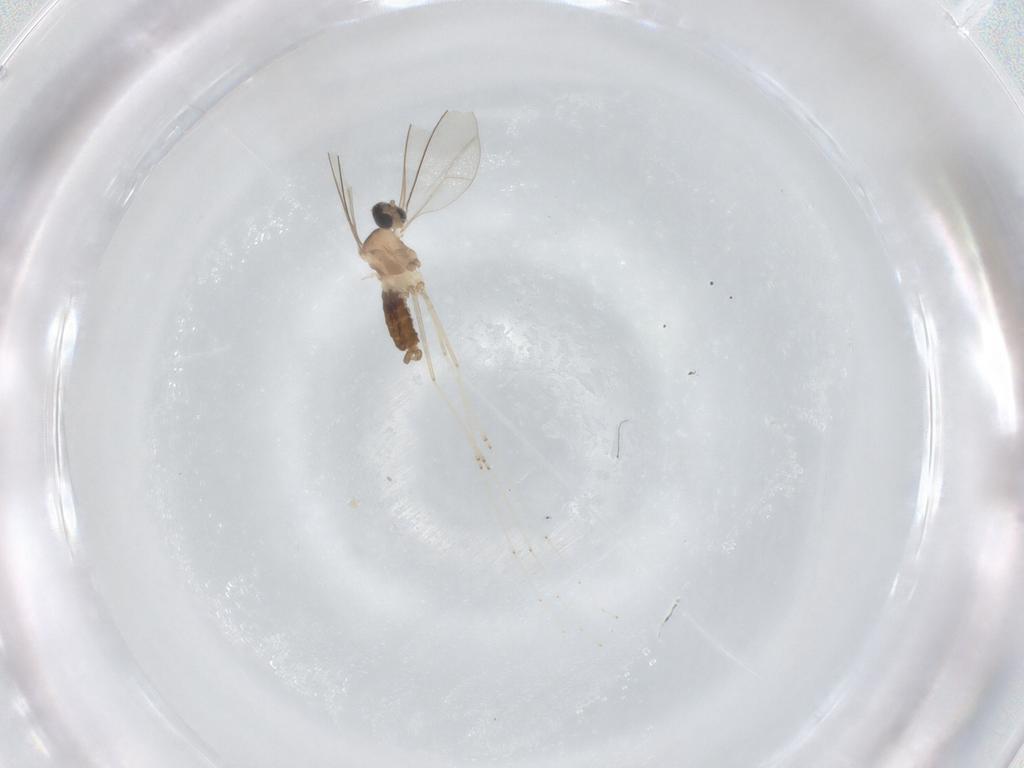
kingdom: Animalia
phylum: Arthropoda
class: Insecta
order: Diptera
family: Cecidomyiidae
